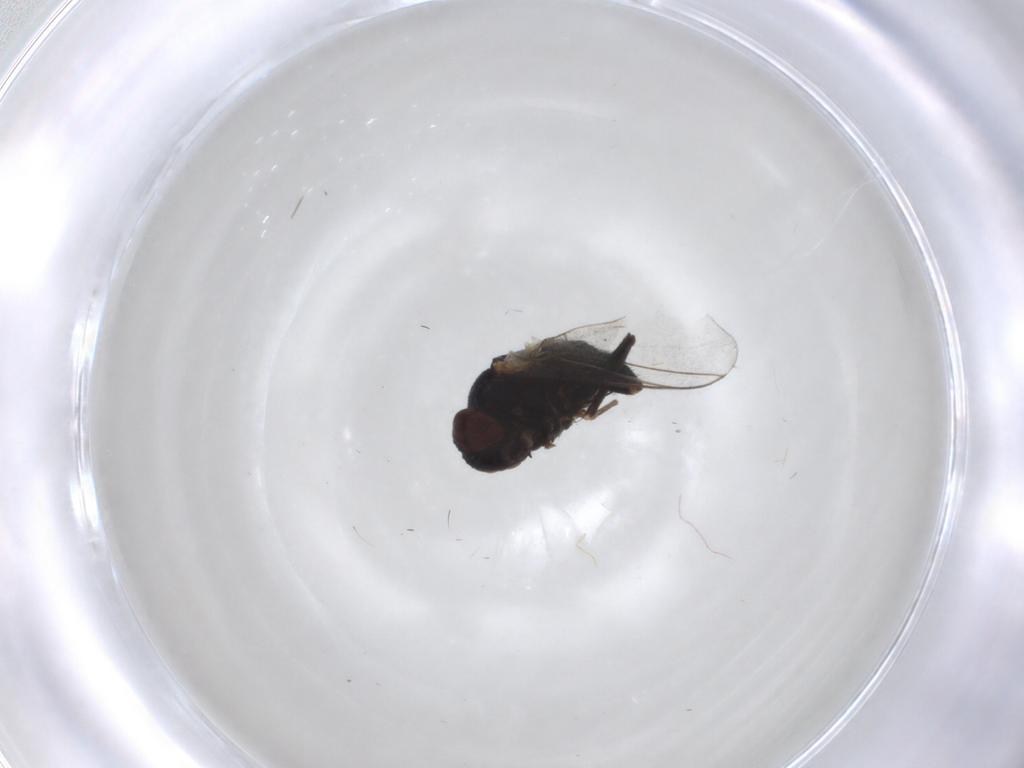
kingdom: Animalia
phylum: Arthropoda
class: Insecta
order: Diptera
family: Agromyzidae
